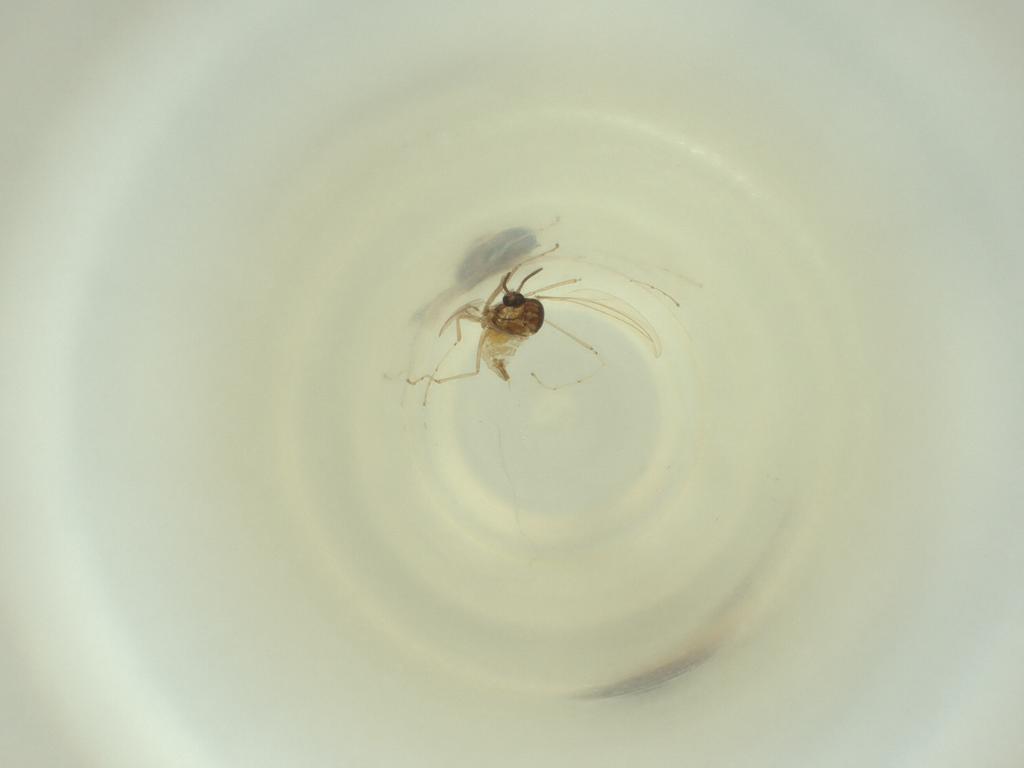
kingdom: Animalia
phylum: Arthropoda
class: Insecta
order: Diptera
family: Cecidomyiidae
